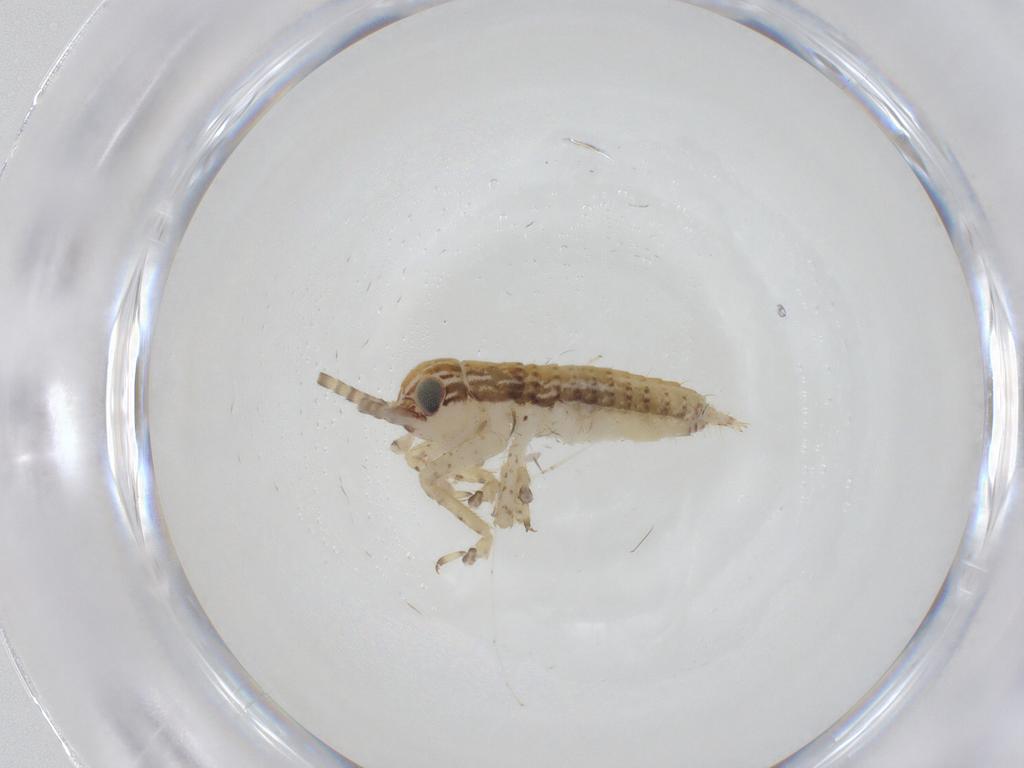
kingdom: Animalia
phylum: Arthropoda
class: Insecta
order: Orthoptera
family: Gryllidae
